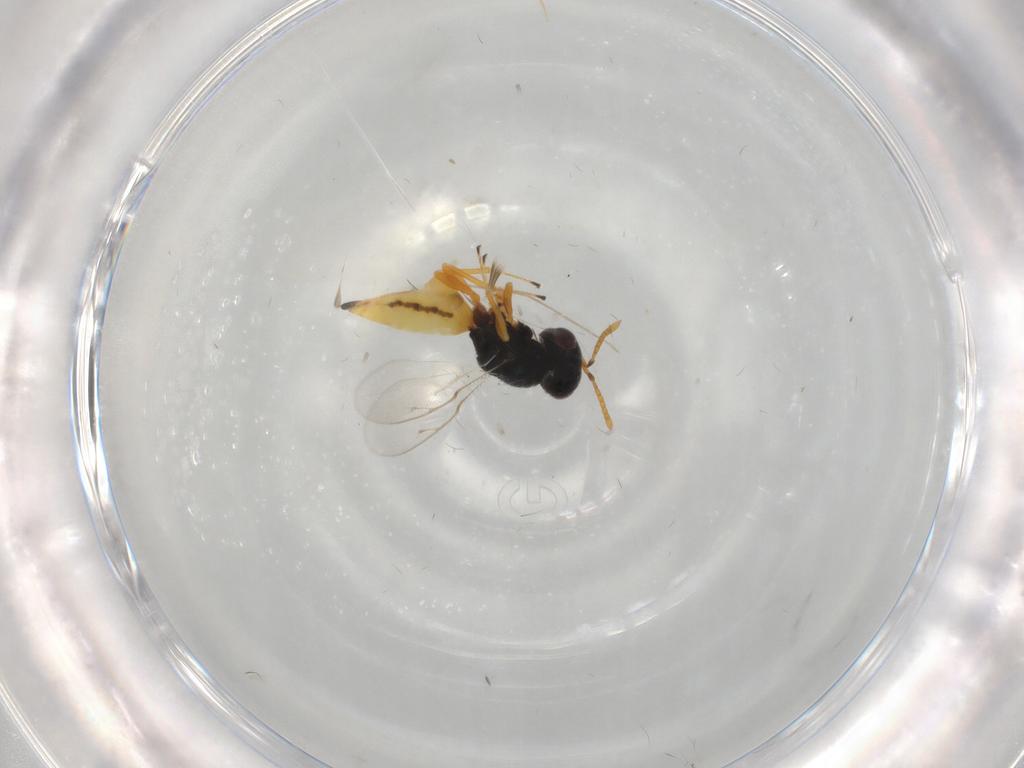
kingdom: Animalia
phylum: Arthropoda
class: Insecta
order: Hymenoptera
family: Pteromalidae
